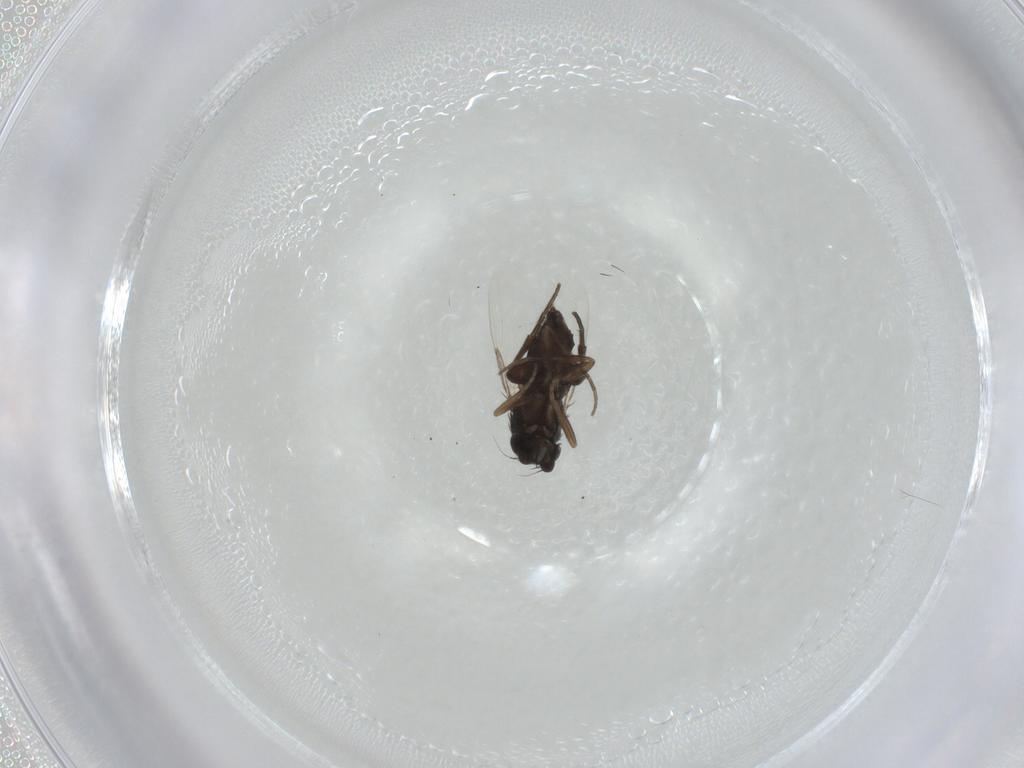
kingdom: Animalia
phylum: Arthropoda
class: Insecta
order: Diptera
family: Phoridae
